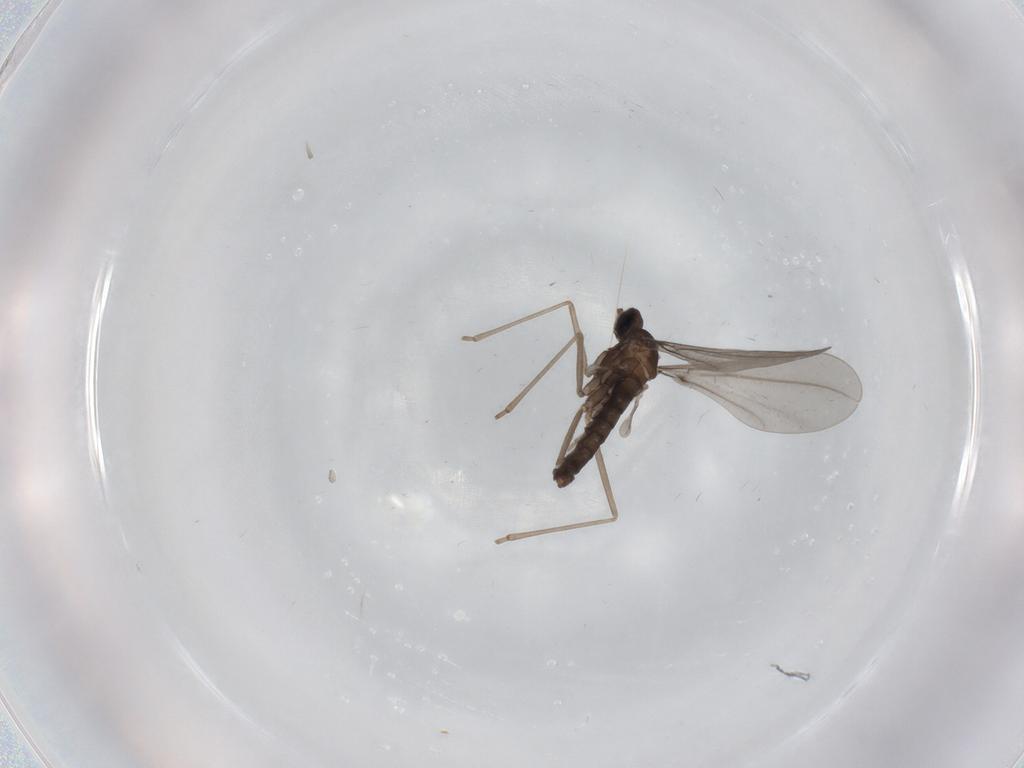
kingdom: Animalia
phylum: Arthropoda
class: Insecta
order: Diptera
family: Cecidomyiidae
